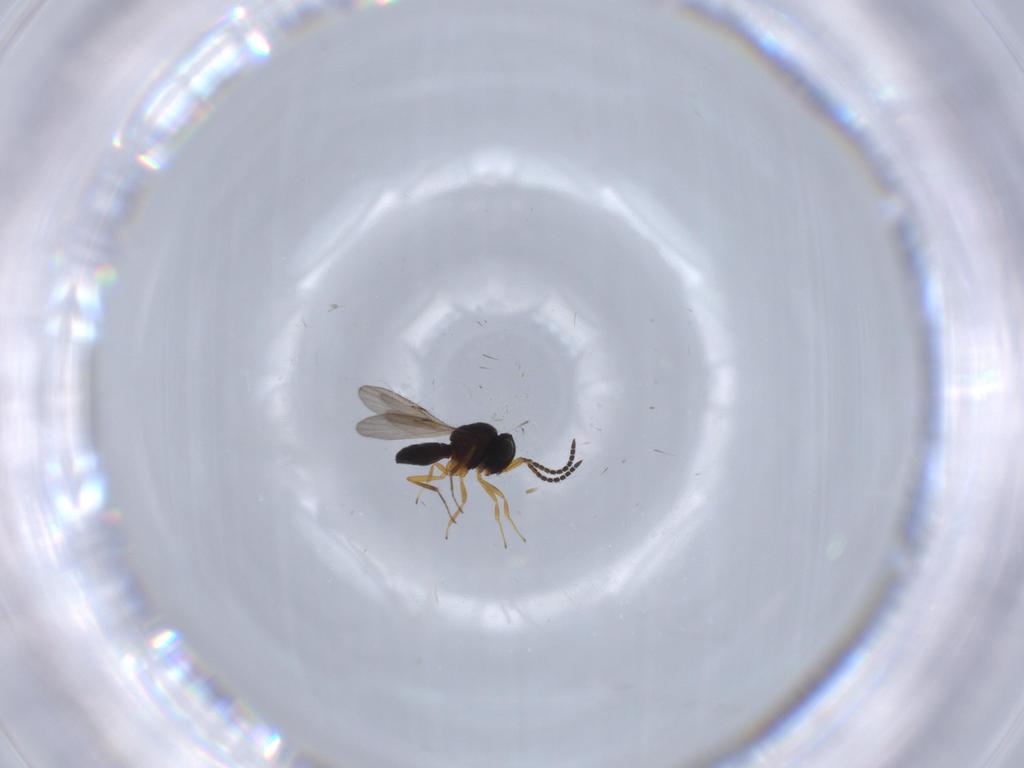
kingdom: Animalia
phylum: Arthropoda
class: Insecta
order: Hymenoptera
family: Scelionidae
